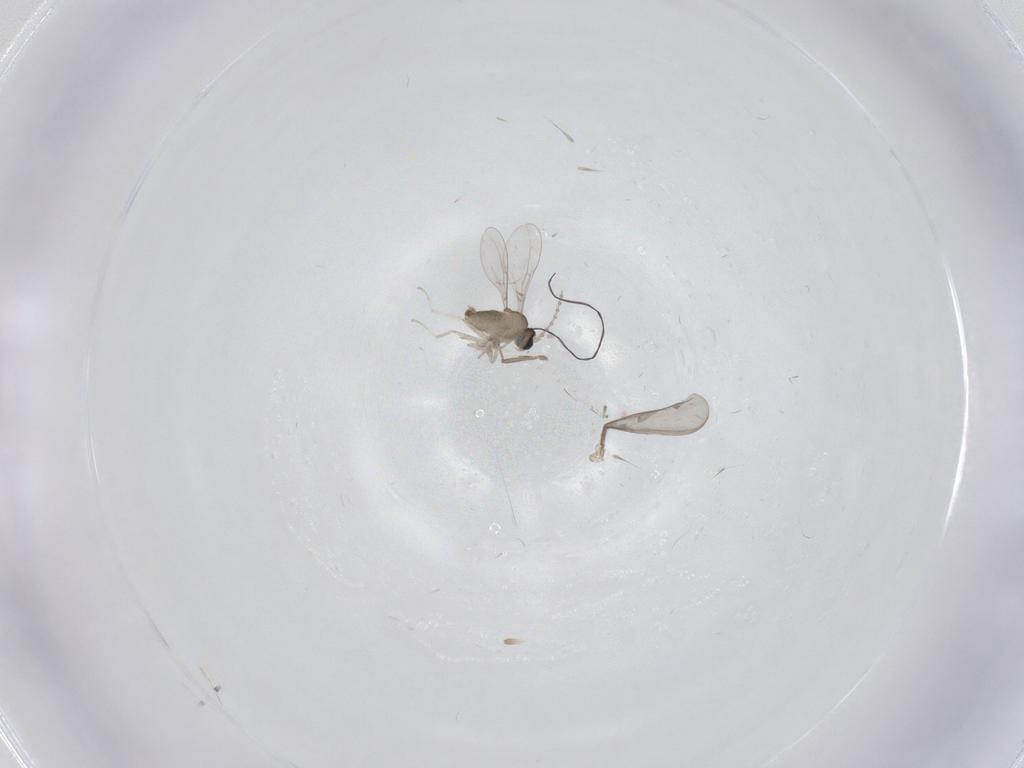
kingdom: Animalia
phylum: Arthropoda
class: Insecta
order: Diptera
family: Cecidomyiidae
